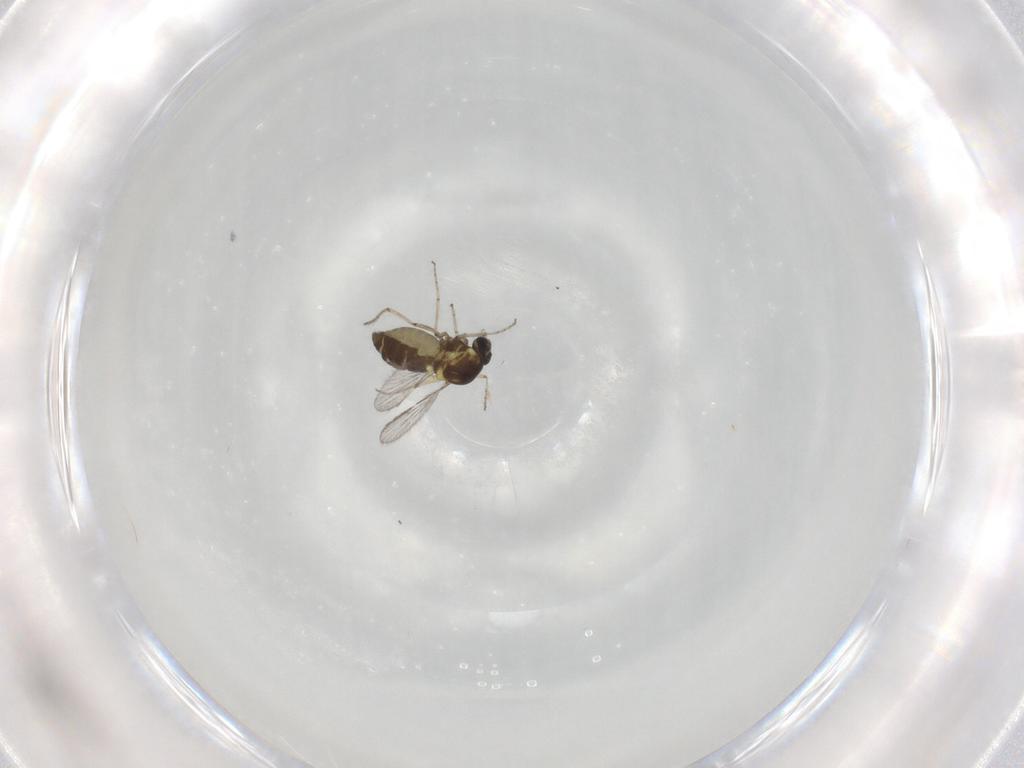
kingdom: Animalia
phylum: Arthropoda
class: Insecta
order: Diptera
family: Ceratopogonidae
